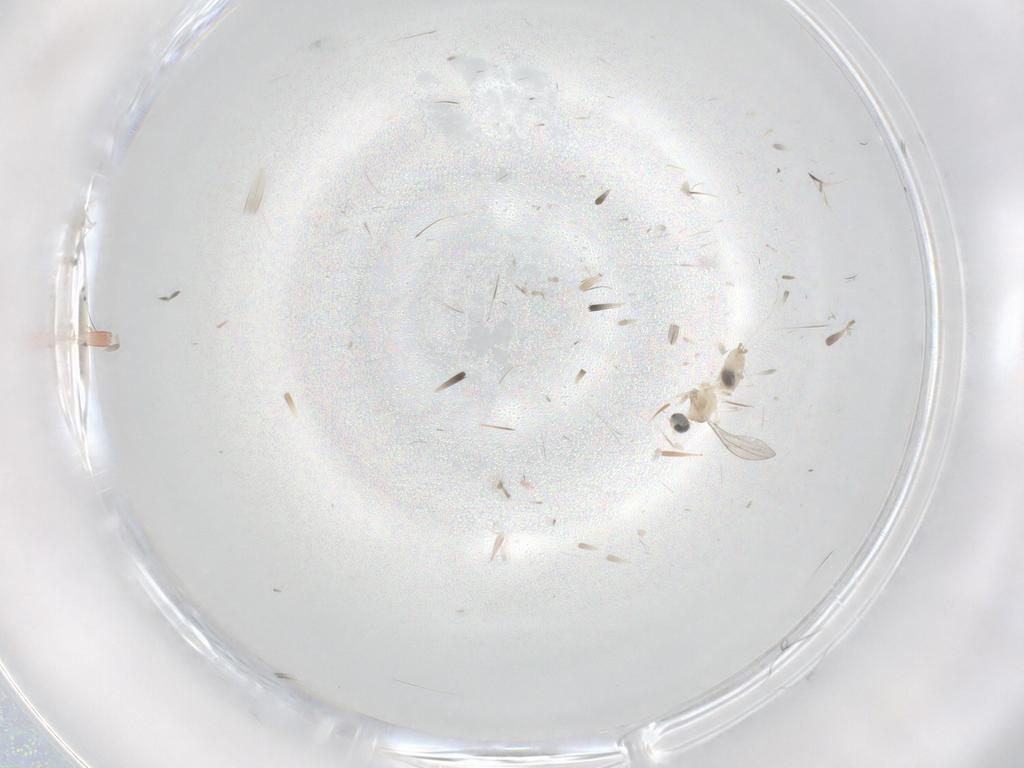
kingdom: Animalia
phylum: Arthropoda
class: Insecta
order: Diptera
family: Cecidomyiidae
